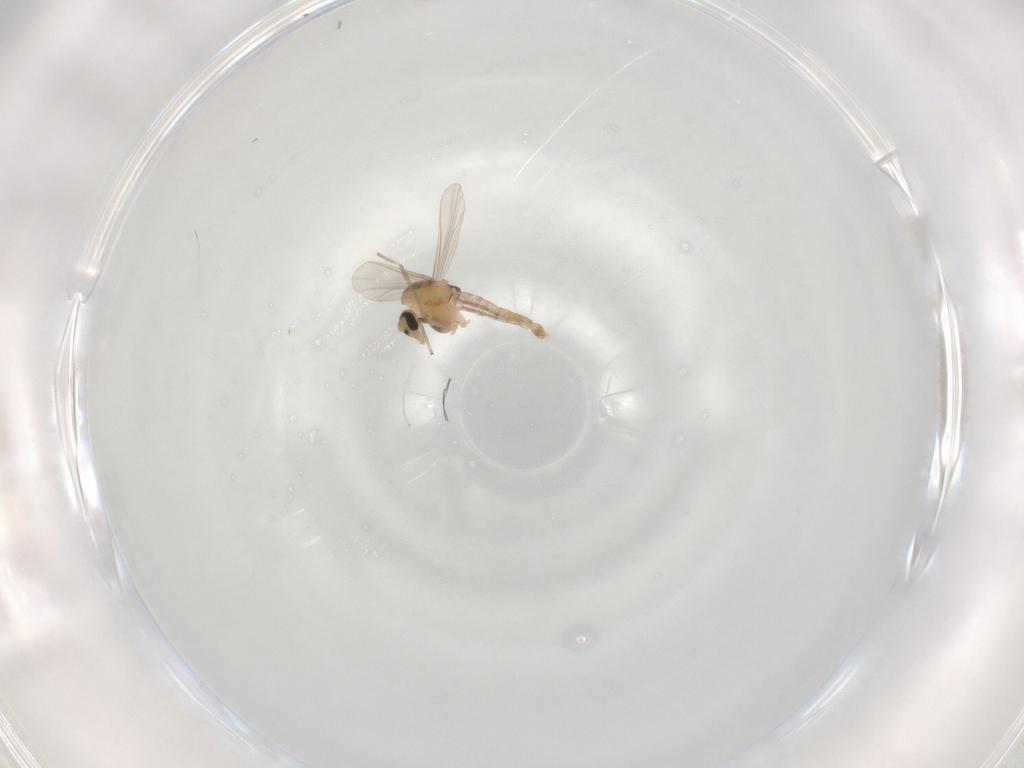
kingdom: Animalia
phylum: Arthropoda
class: Insecta
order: Diptera
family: Chironomidae
